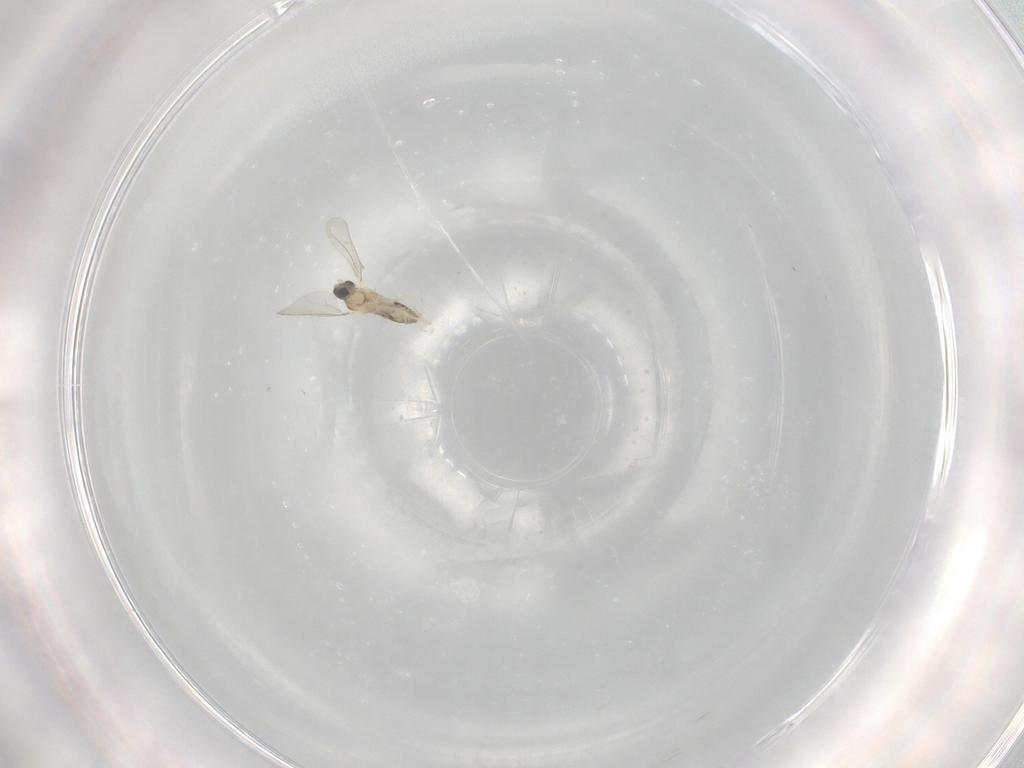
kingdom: Animalia
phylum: Arthropoda
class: Insecta
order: Diptera
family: Cecidomyiidae
